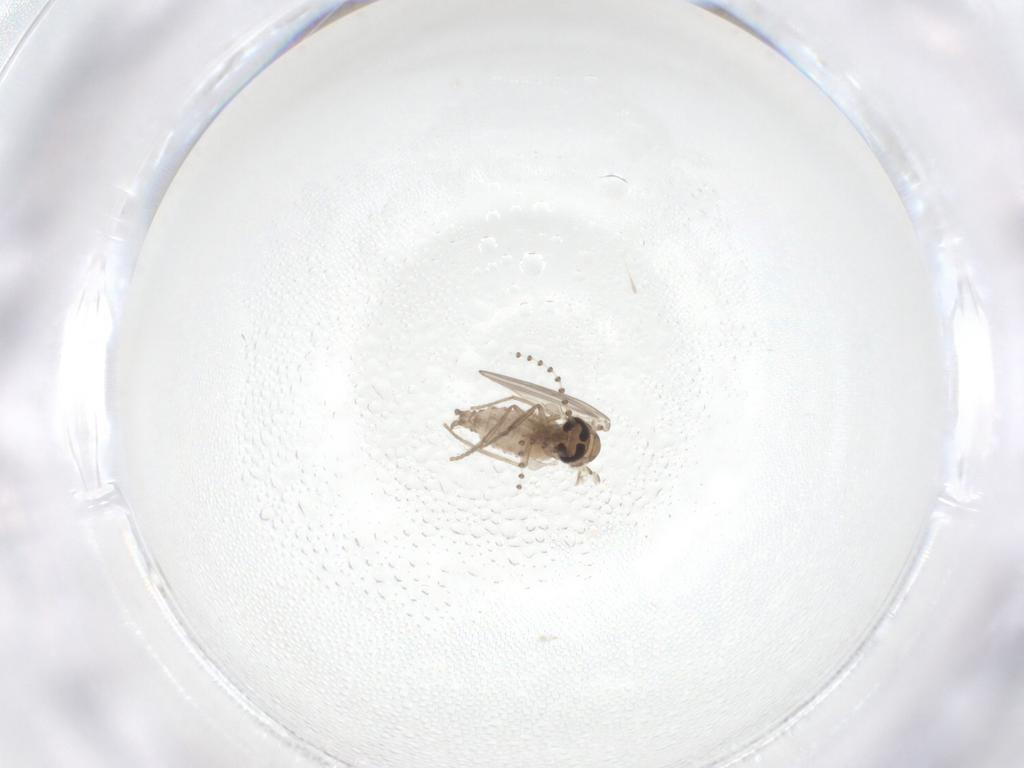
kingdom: Animalia
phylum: Arthropoda
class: Insecta
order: Diptera
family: Psychodidae
